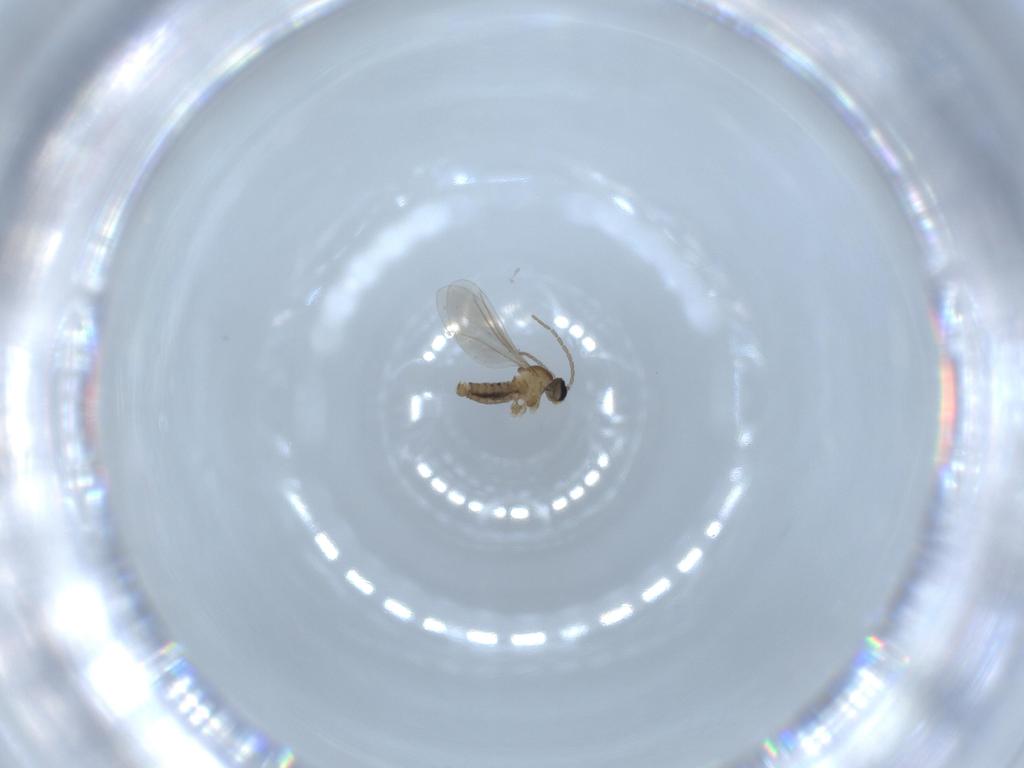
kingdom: Animalia
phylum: Arthropoda
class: Insecta
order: Diptera
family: Cecidomyiidae
